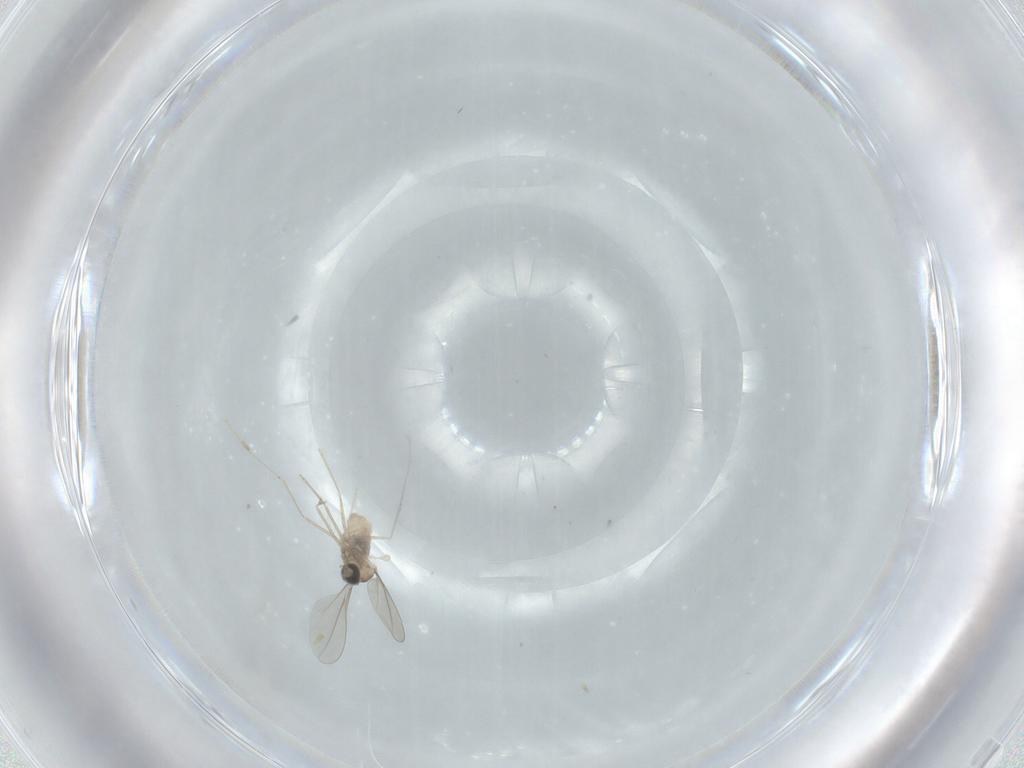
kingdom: Animalia
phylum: Arthropoda
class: Insecta
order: Diptera
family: Cecidomyiidae
